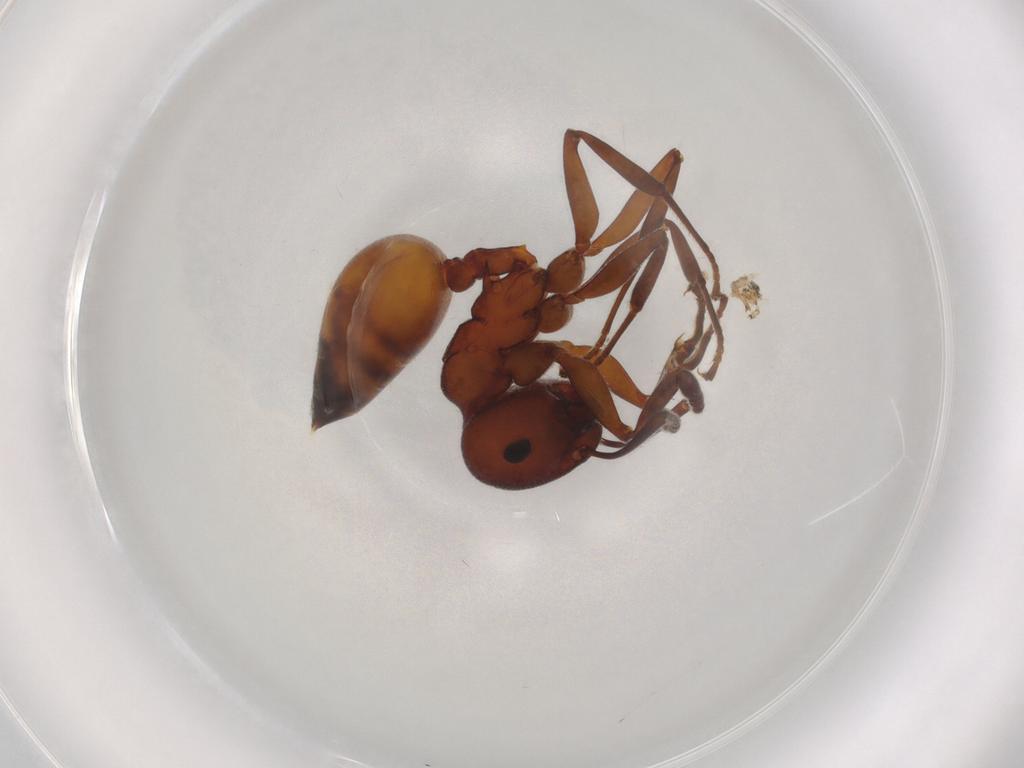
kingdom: Animalia
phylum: Arthropoda
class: Insecta
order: Hymenoptera
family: Formicidae
